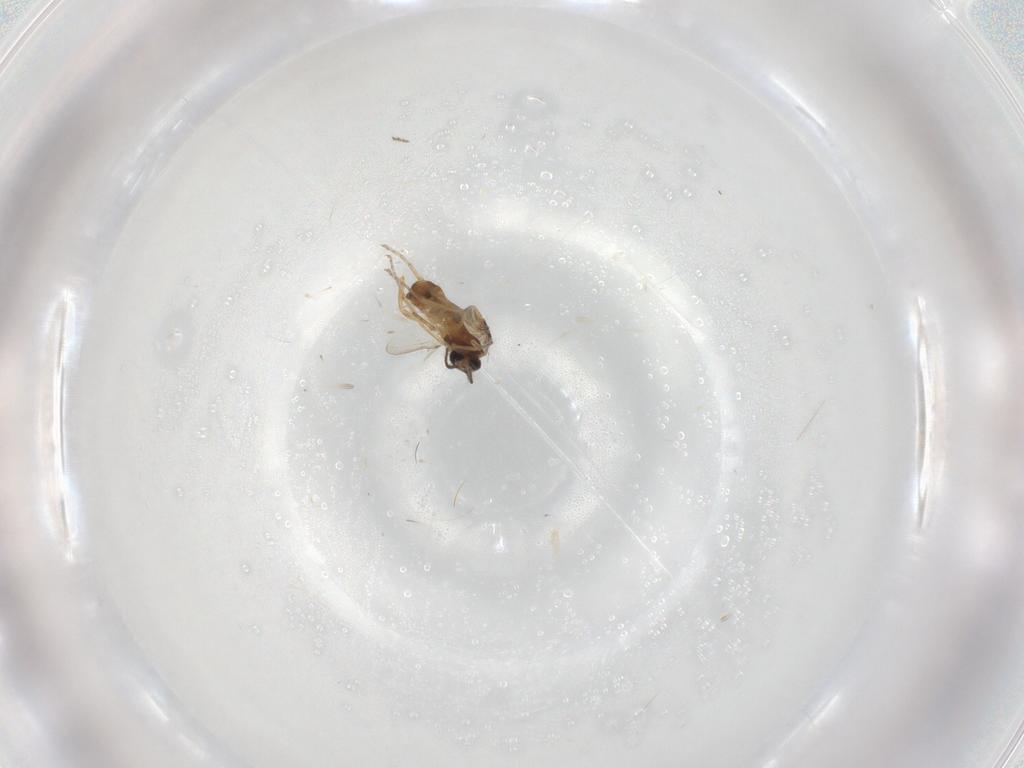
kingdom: Animalia
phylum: Arthropoda
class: Insecta
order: Diptera
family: Ceratopogonidae
